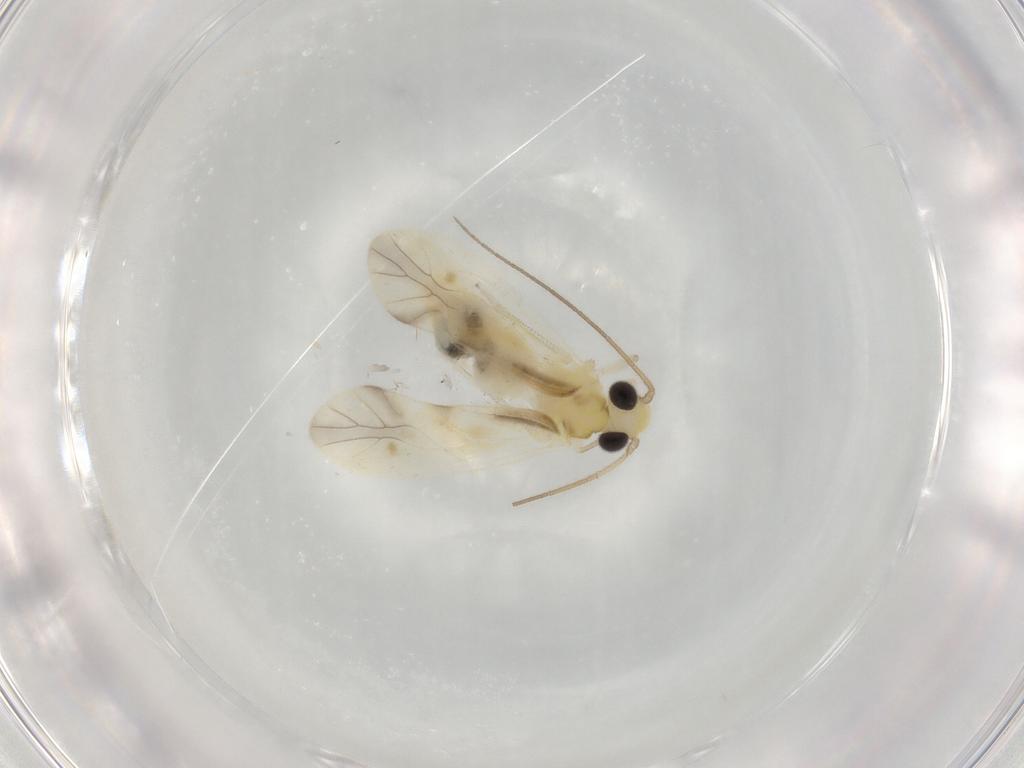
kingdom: Animalia
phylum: Arthropoda
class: Insecta
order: Psocodea
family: Caeciliusidae
